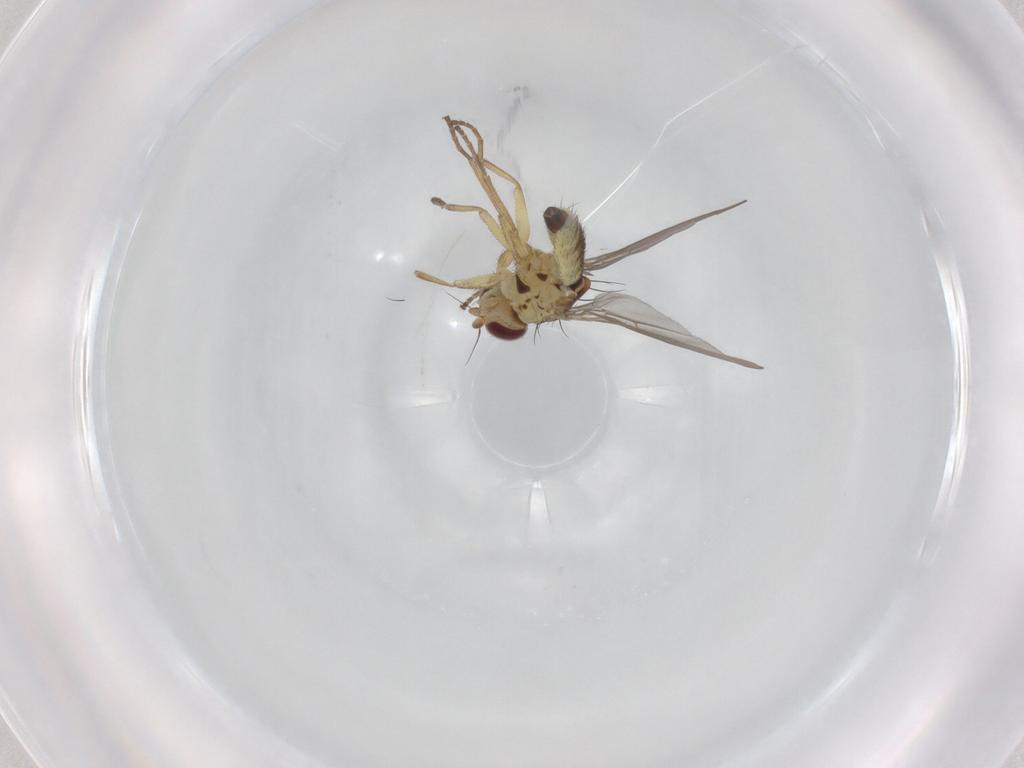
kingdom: Animalia
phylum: Arthropoda
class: Insecta
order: Diptera
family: Agromyzidae
